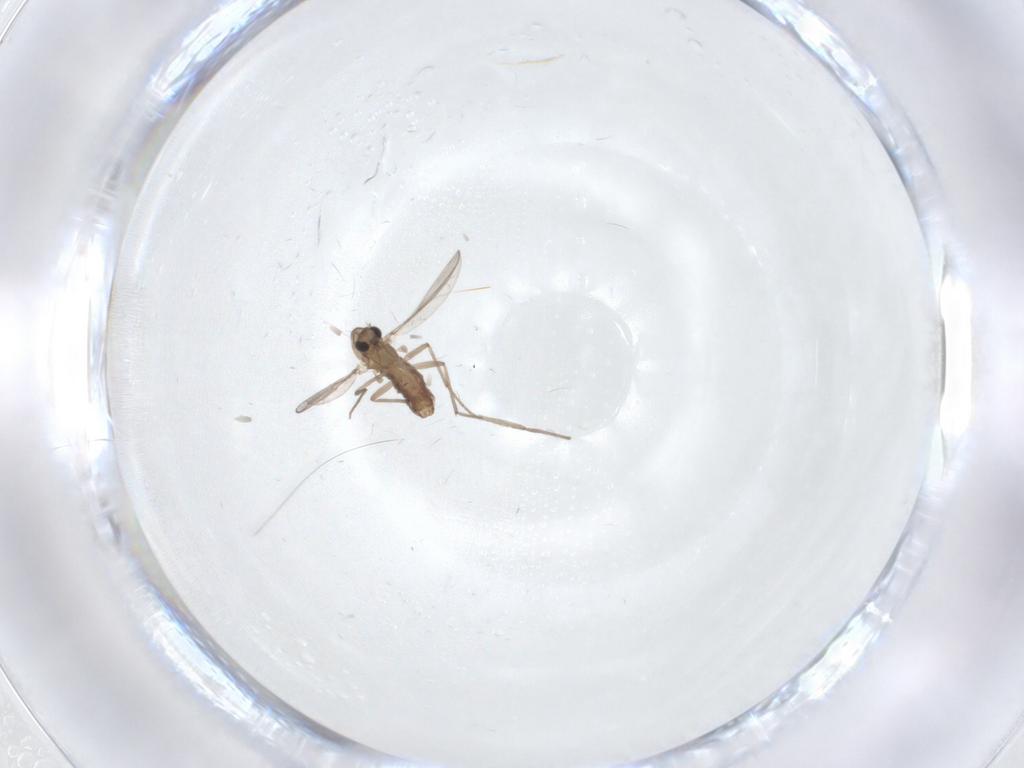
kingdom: Animalia
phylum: Arthropoda
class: Insecta
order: Diptera
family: Chironomidae
